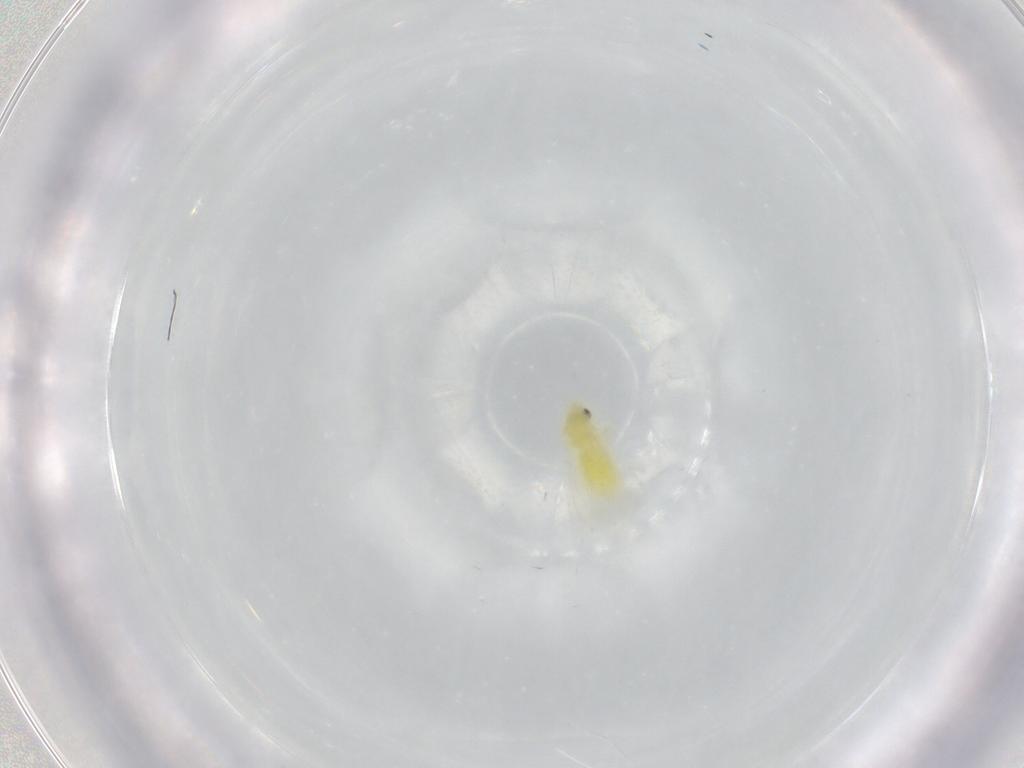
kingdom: Animalia
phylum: Arthropoda
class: Insecta
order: Hemiptera
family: Aleyrodidae
